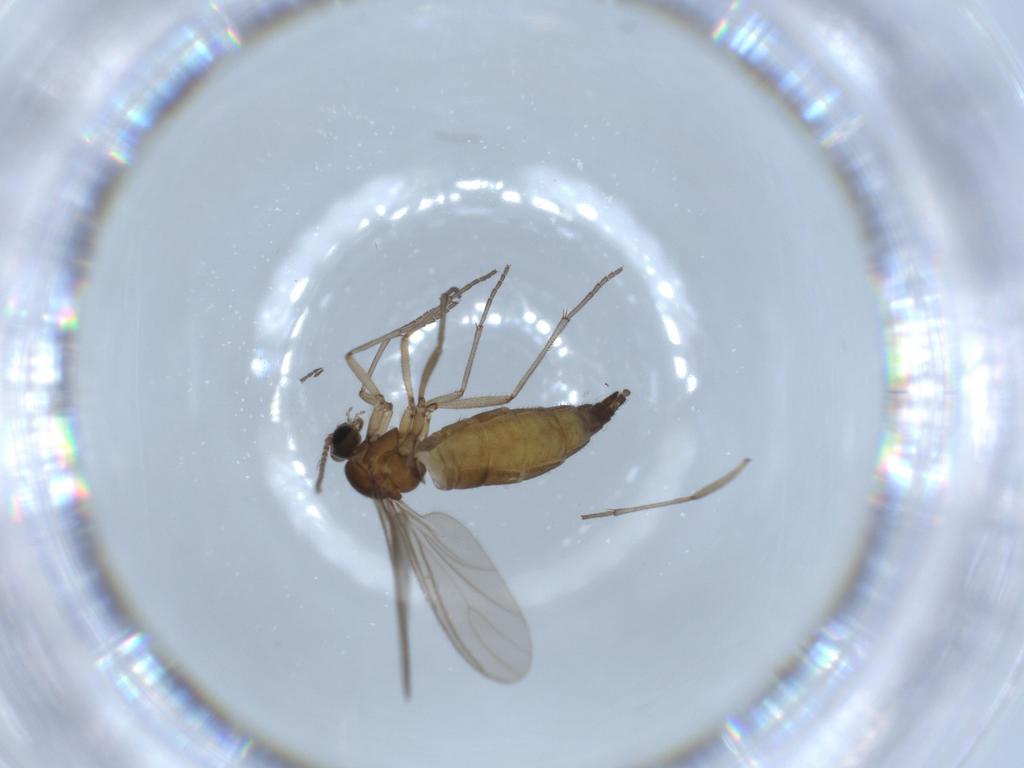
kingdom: Animalia
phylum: Arthropoda
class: Insecta
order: Diptera
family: Sciaridae
